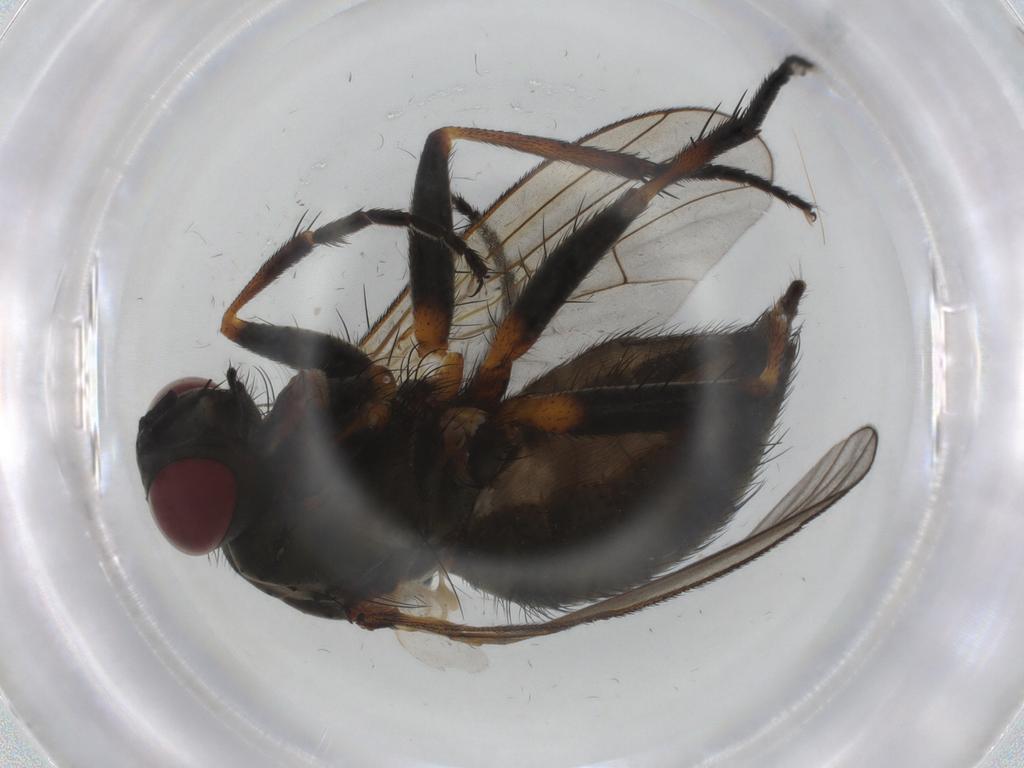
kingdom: Animalia
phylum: Arthropoda
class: Insecta
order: Diptera
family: Muscidae
